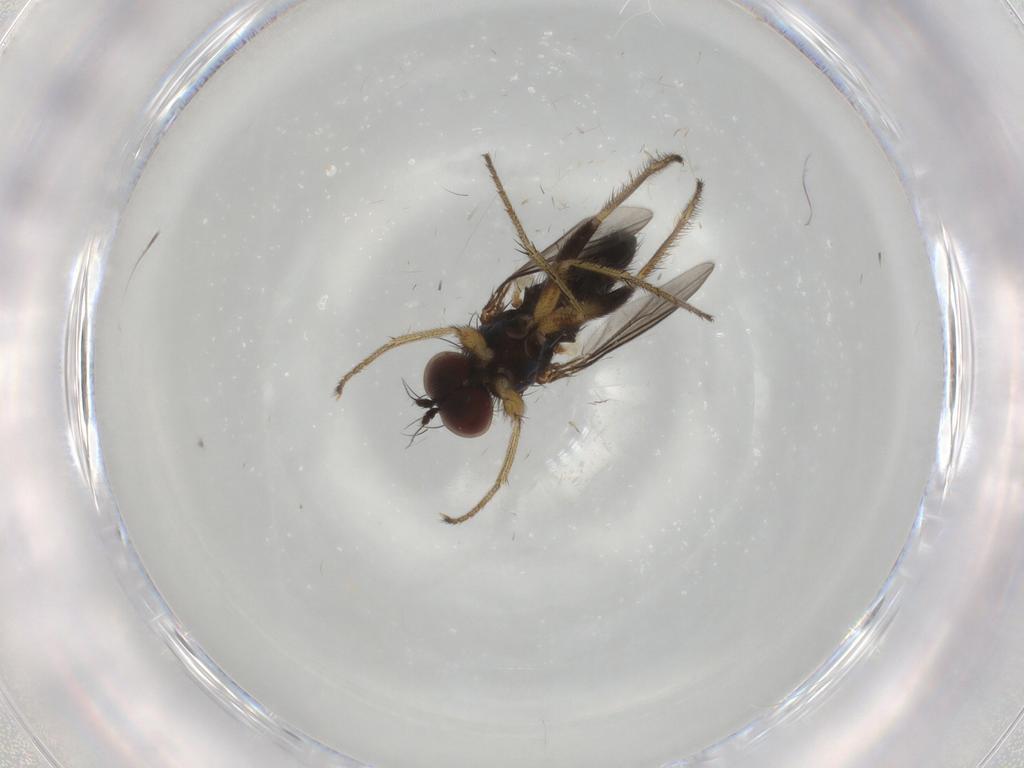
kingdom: Animalia
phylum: Arthropoda
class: Insecta
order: Diptera
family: Dolichopodidae
